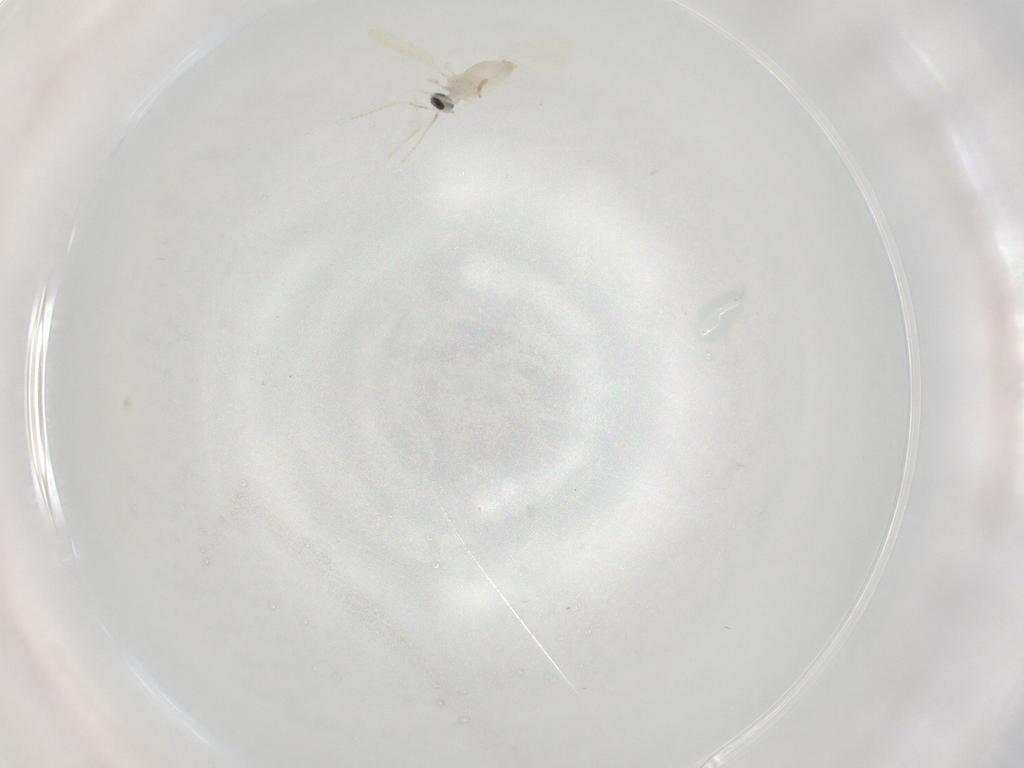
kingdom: Animalia
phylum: Arthropoda
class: Insecta
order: Diptera
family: Cecidomyiidae
